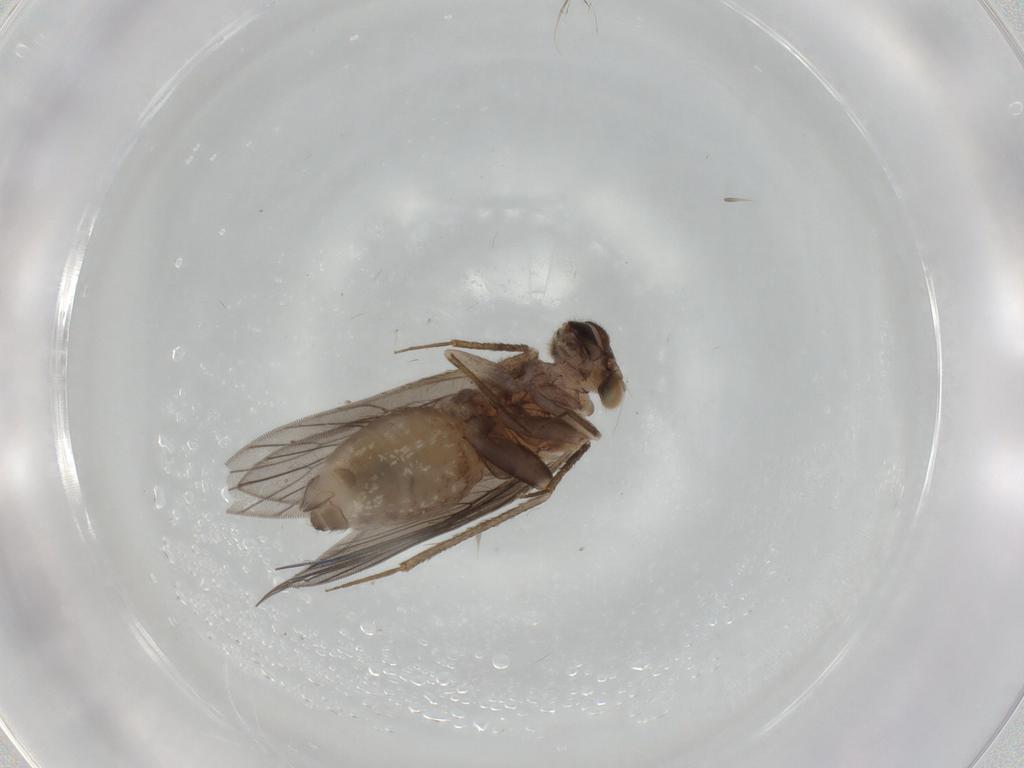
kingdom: Animalia
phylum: Arthropoda
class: Insecta
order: Psocodea
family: Lepidopsocidae
